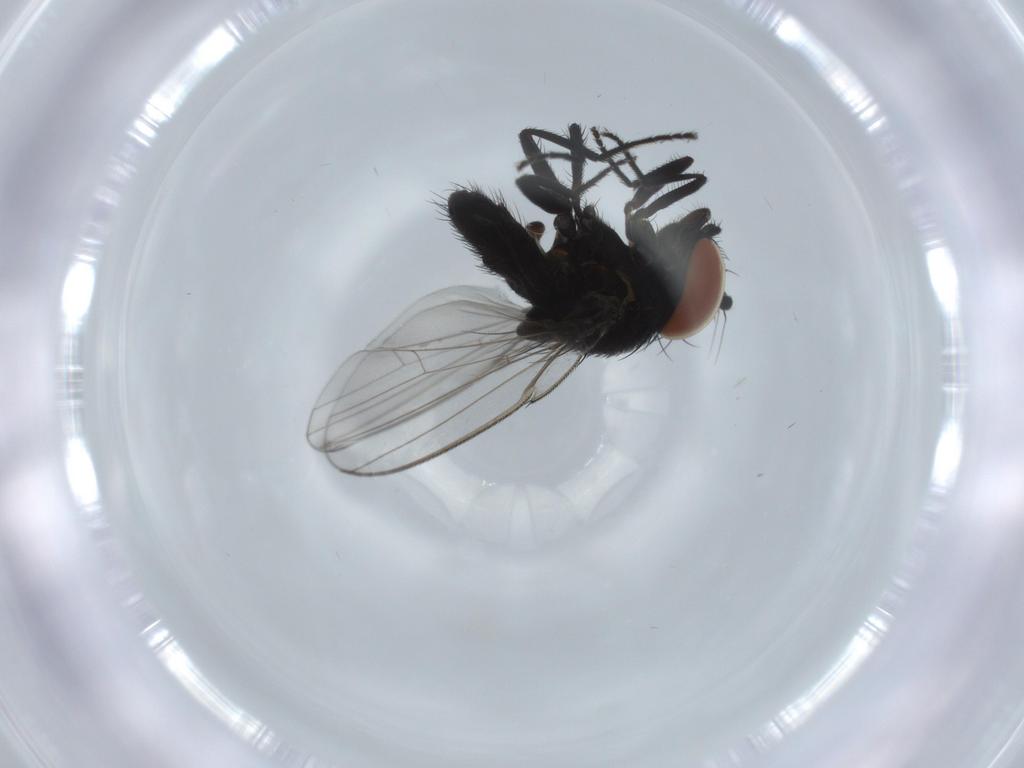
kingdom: Animalia
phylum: Arthropoda
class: Insecta
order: Diptera
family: Milichiidae
